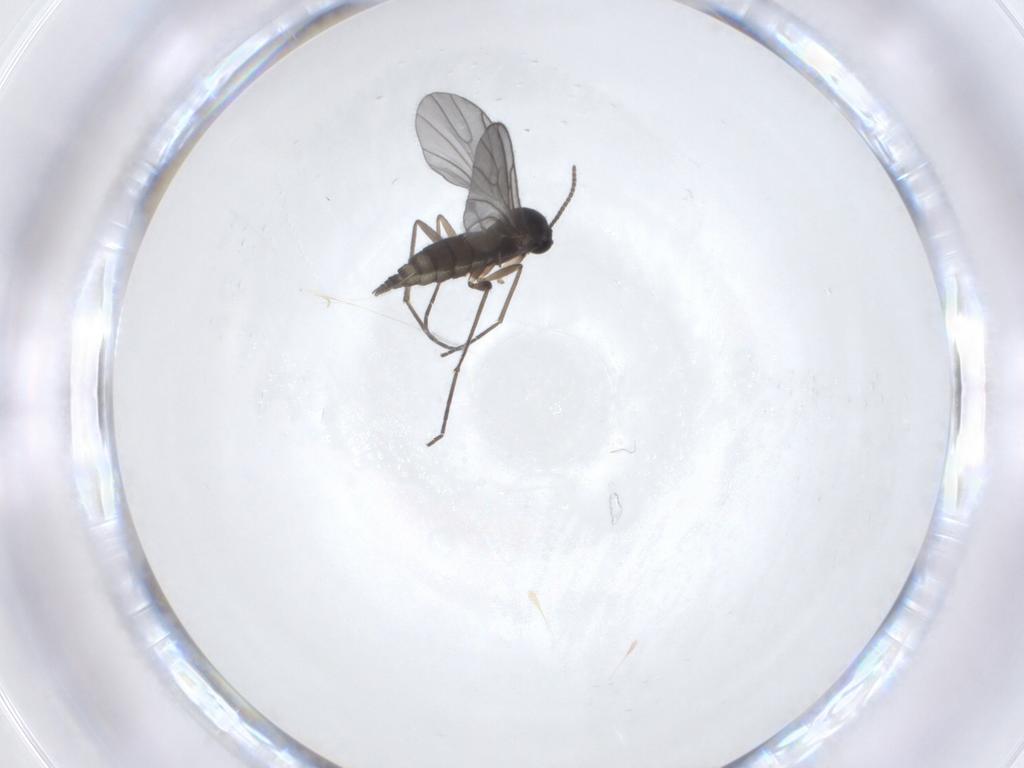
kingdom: Animalia
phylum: Arthropoda
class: Insecta
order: Diptera
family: Sciaridae
